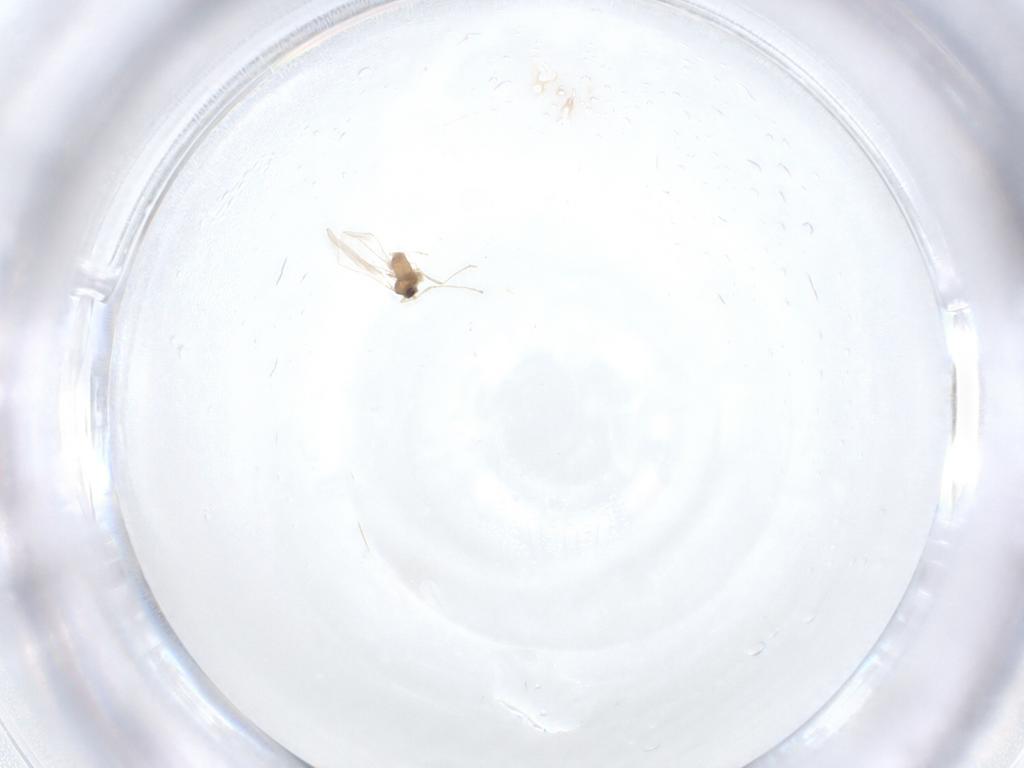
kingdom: Animalia
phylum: Arthropoda
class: Insecta
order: Diptera
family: Cecidomyiidae
